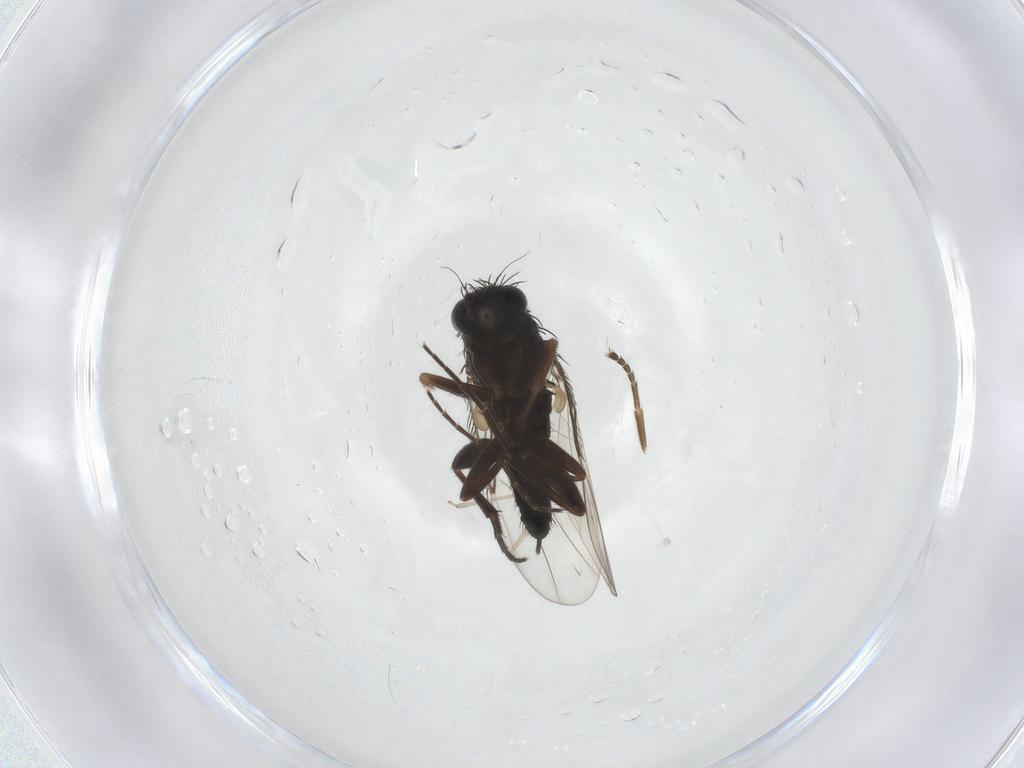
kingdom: Animalia
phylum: Arthropoda
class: Insecta
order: Diptera
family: Phoridae
